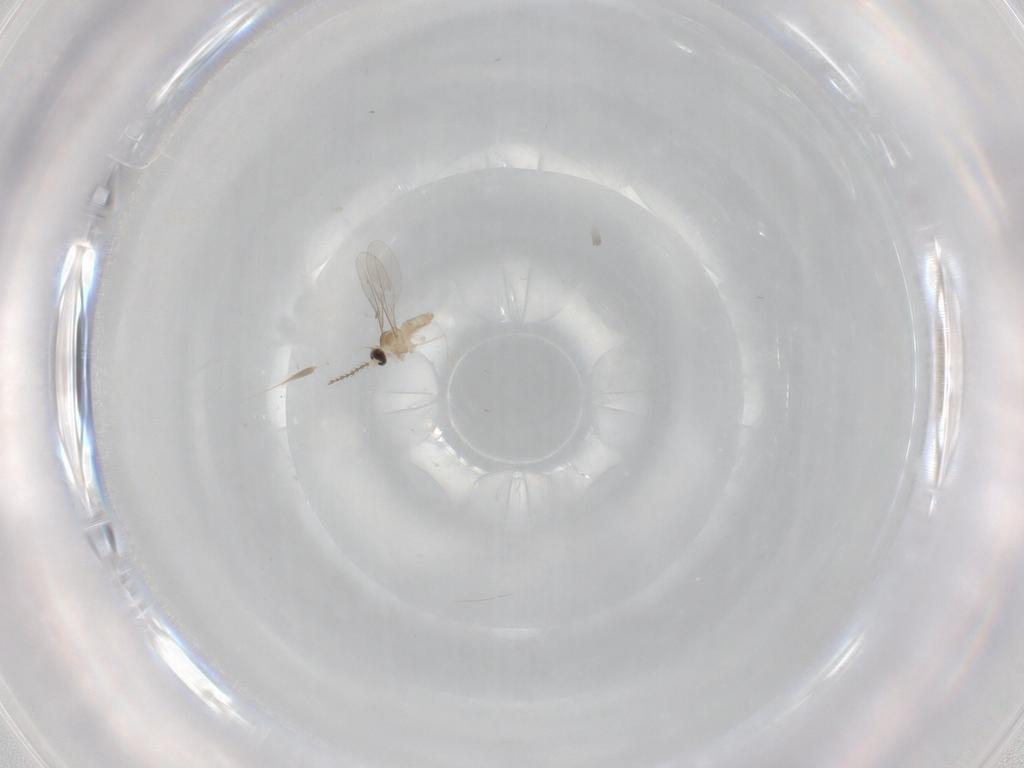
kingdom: Animalia
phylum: Arthropoda
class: Insecta
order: Diptera
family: Cecidomyiidae
